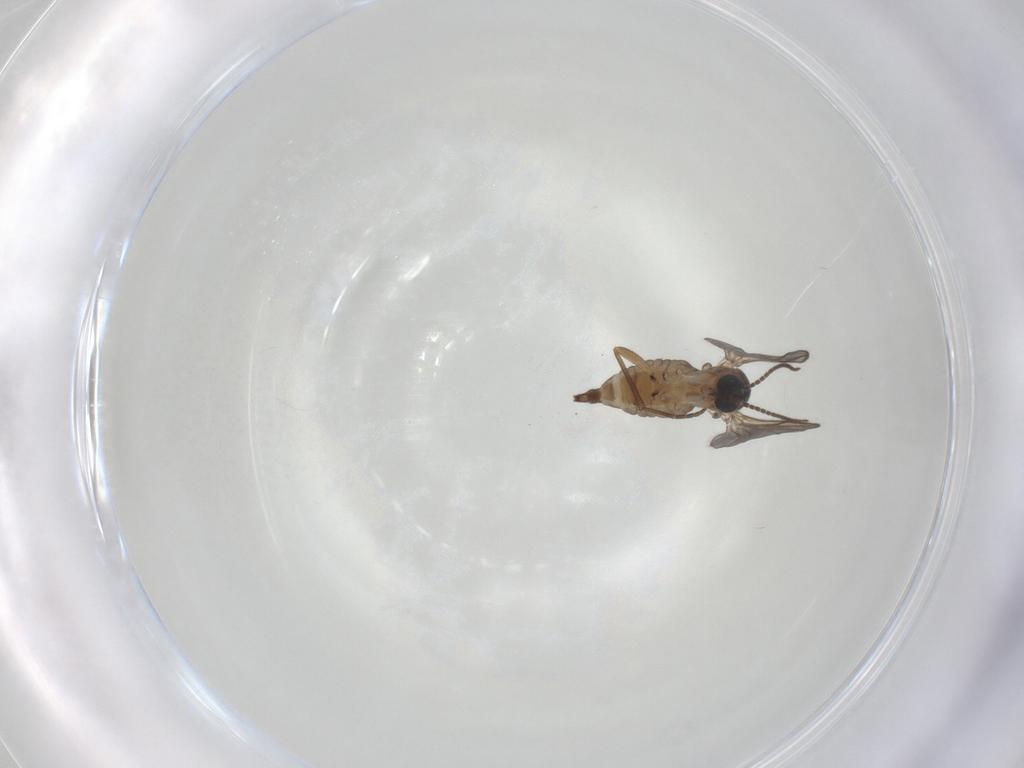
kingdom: Animalia
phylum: Arthropoda
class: Insecta
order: Diptera
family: Sciaridae
